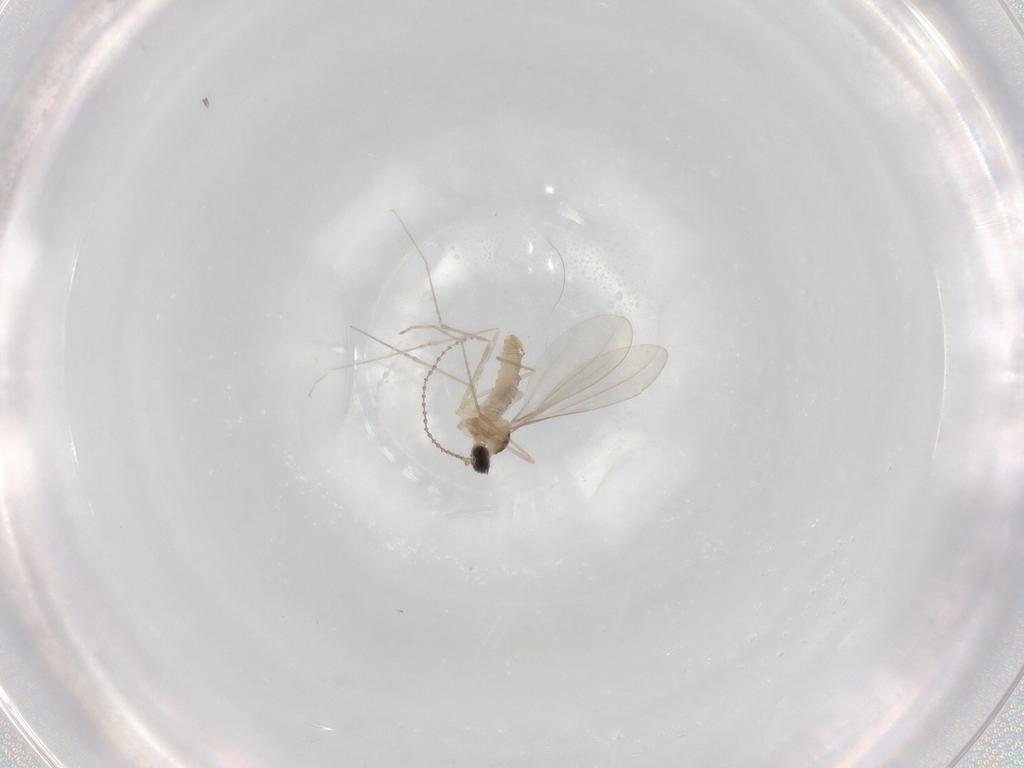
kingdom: Animalia
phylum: Arthropoda
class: Insecta
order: Diptera
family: Cecidomyiidae
